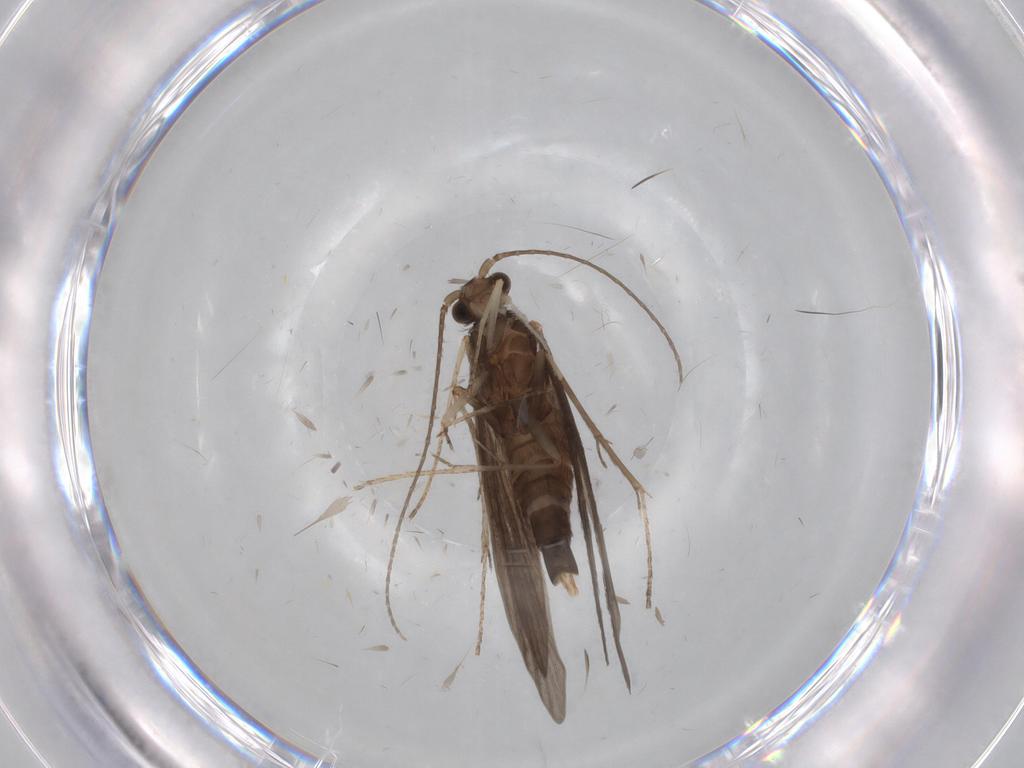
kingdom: Animalia
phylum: Arthropoda
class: Insecta
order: Trichoptera
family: Xiphocentronidae
